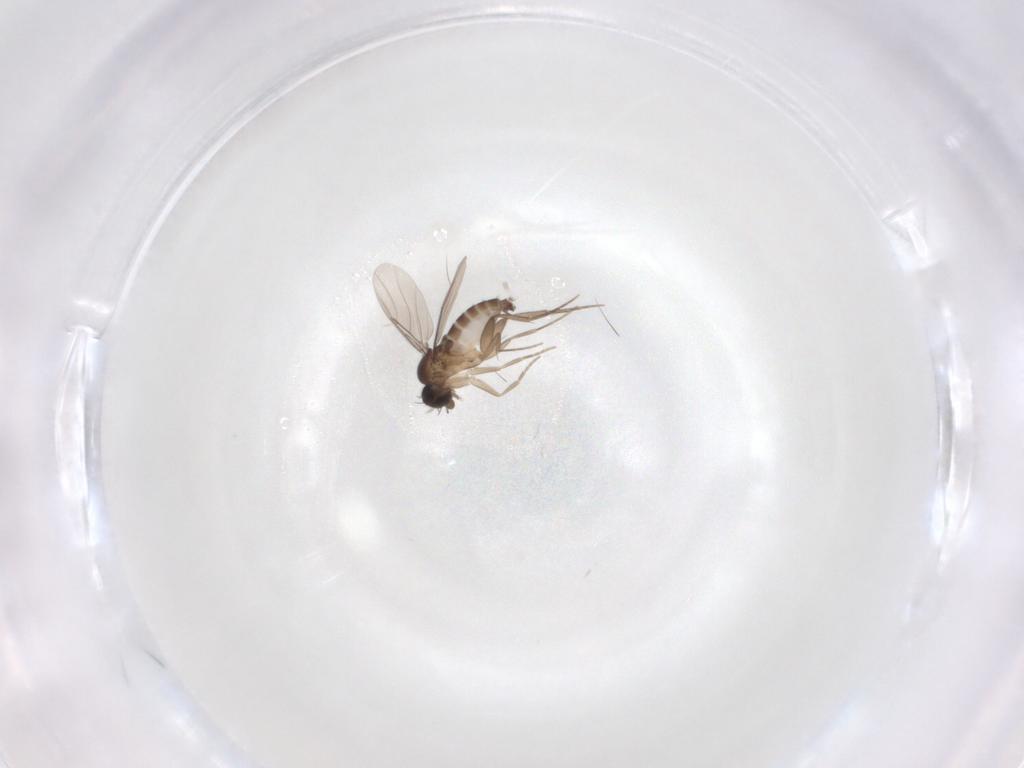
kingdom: Animalia
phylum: Arthropoda
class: Insecta
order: Diptera
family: Phoridae
